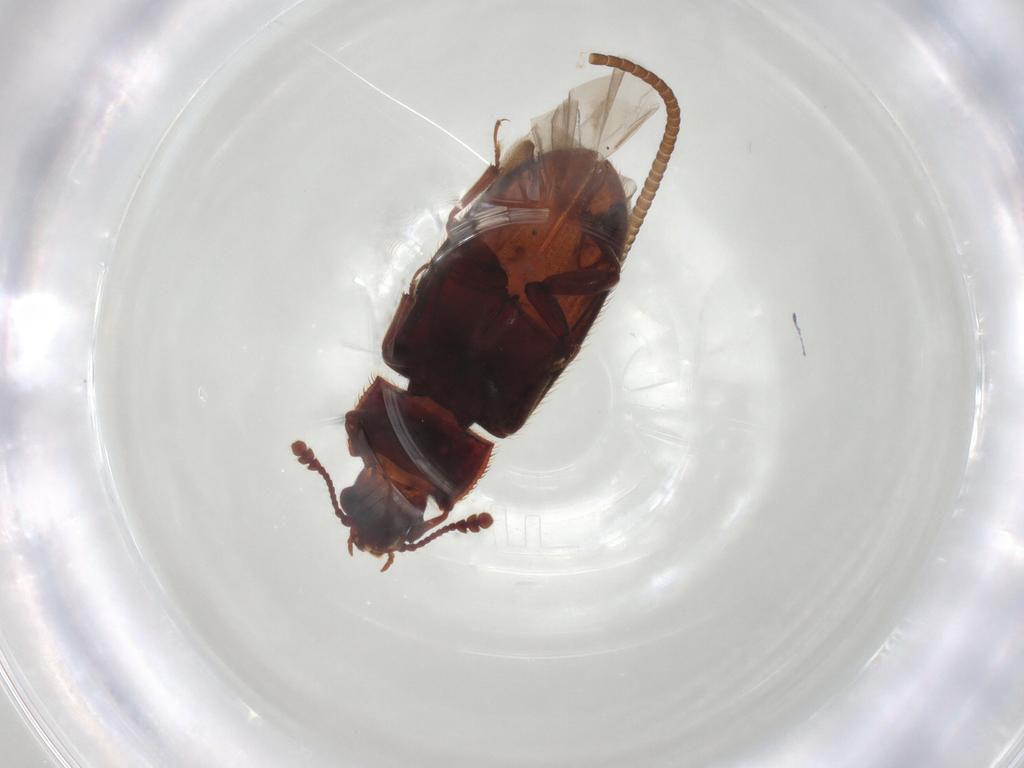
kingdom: Animalia
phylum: Arthropoda
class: Insecta
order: Coleoptera
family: Biphyllidae
